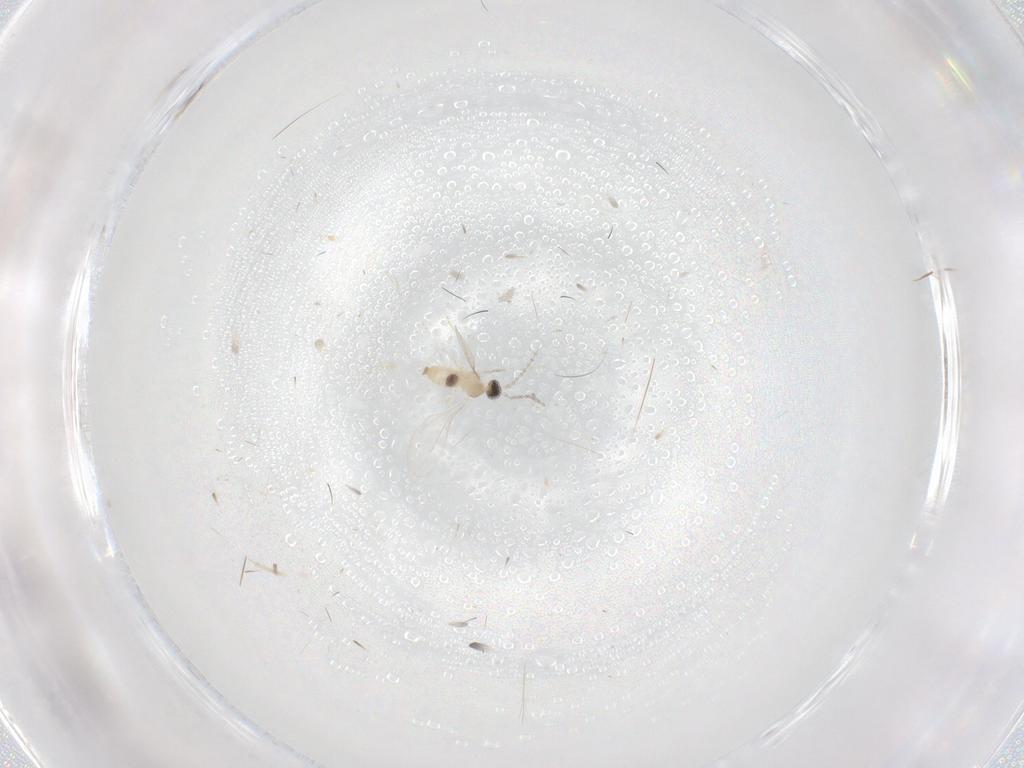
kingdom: Animalia
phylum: Arthropoda
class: Insecta
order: Diptera
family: Cecidomyiidae
